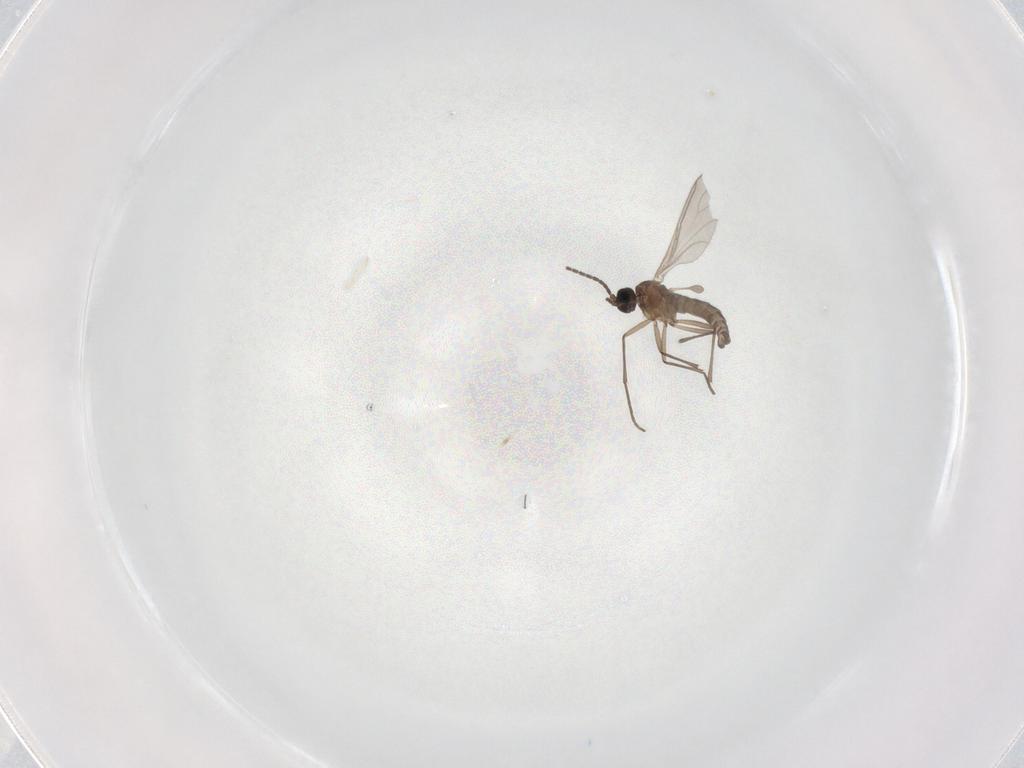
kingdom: Animalia
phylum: Arthropoda
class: Insecta
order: Diptera
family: Sciaridae
